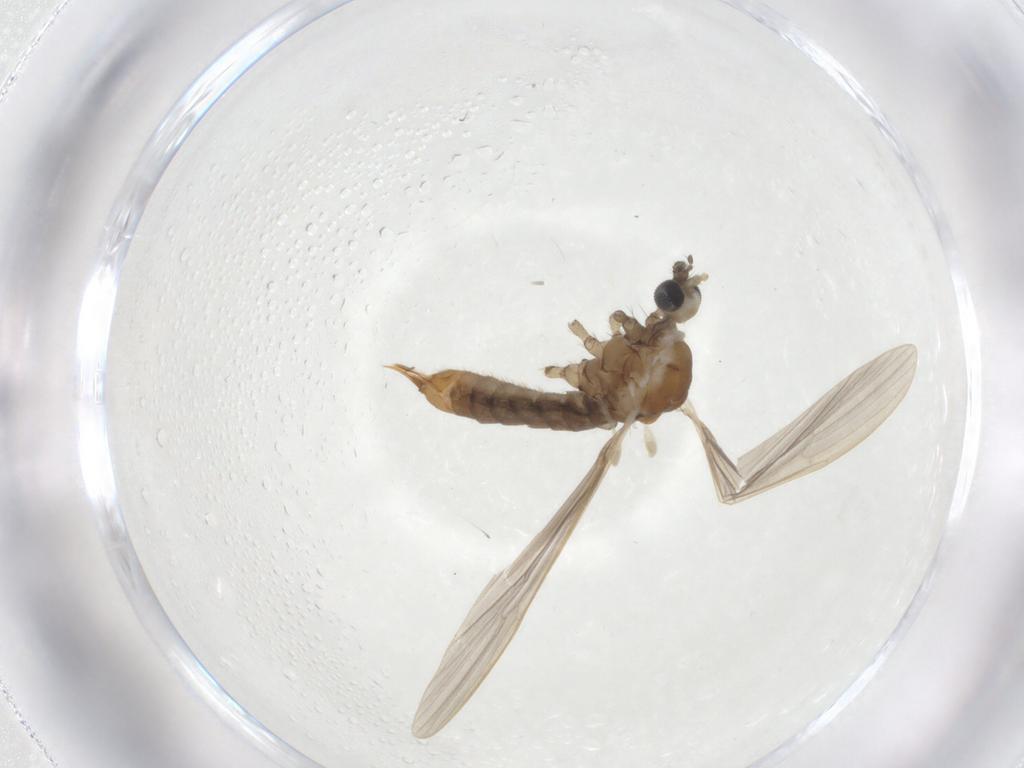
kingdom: Animalia
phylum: Arthropoda
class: Insecta
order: Diptera
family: Limoniidae
